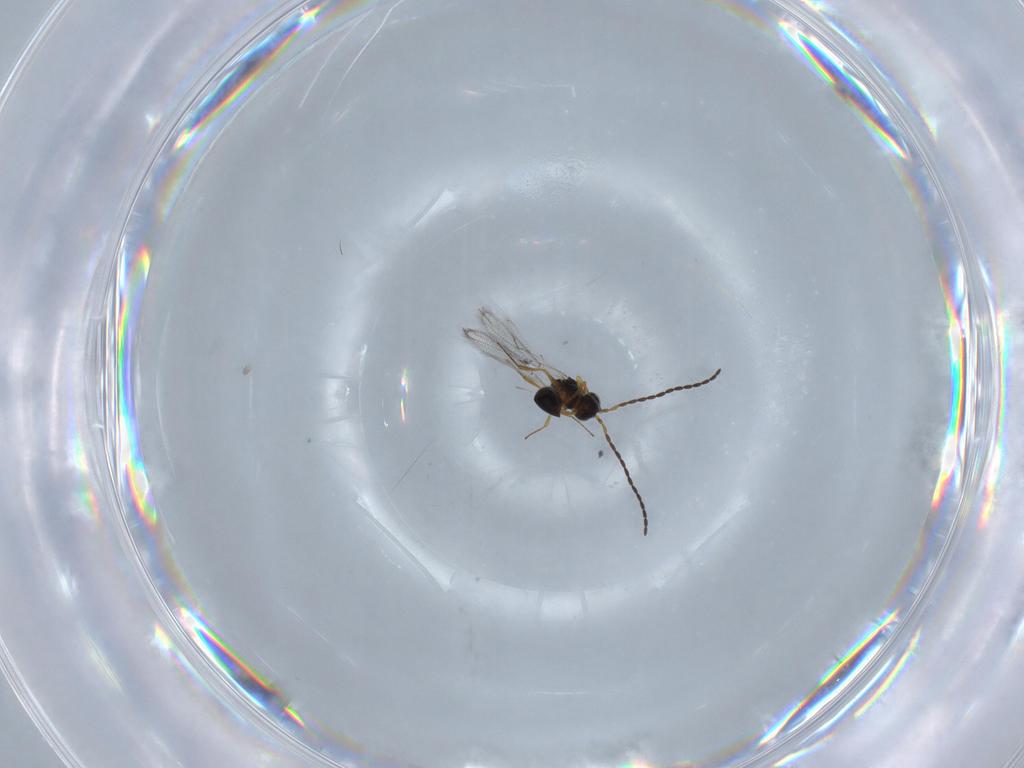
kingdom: Animalia
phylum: Arthropoda
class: Insecta
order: Hymenoptera
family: Figitidae
